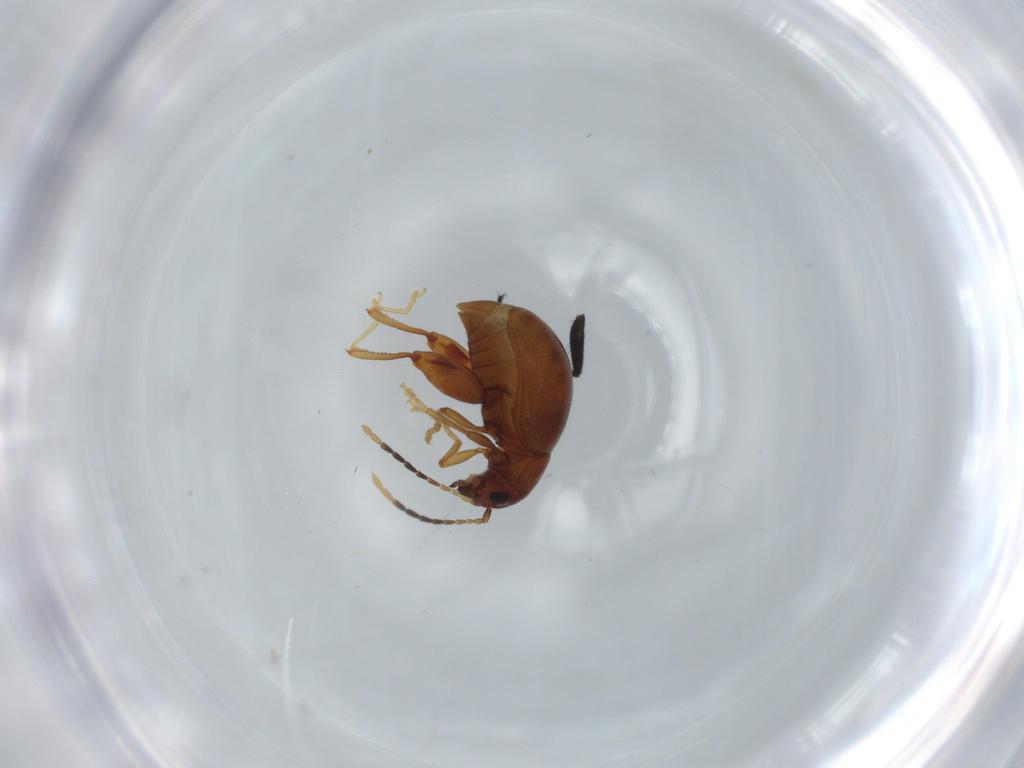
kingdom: Animalia
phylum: Arthropoda
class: Insecta
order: Coleoptera
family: Chrysomelidae
